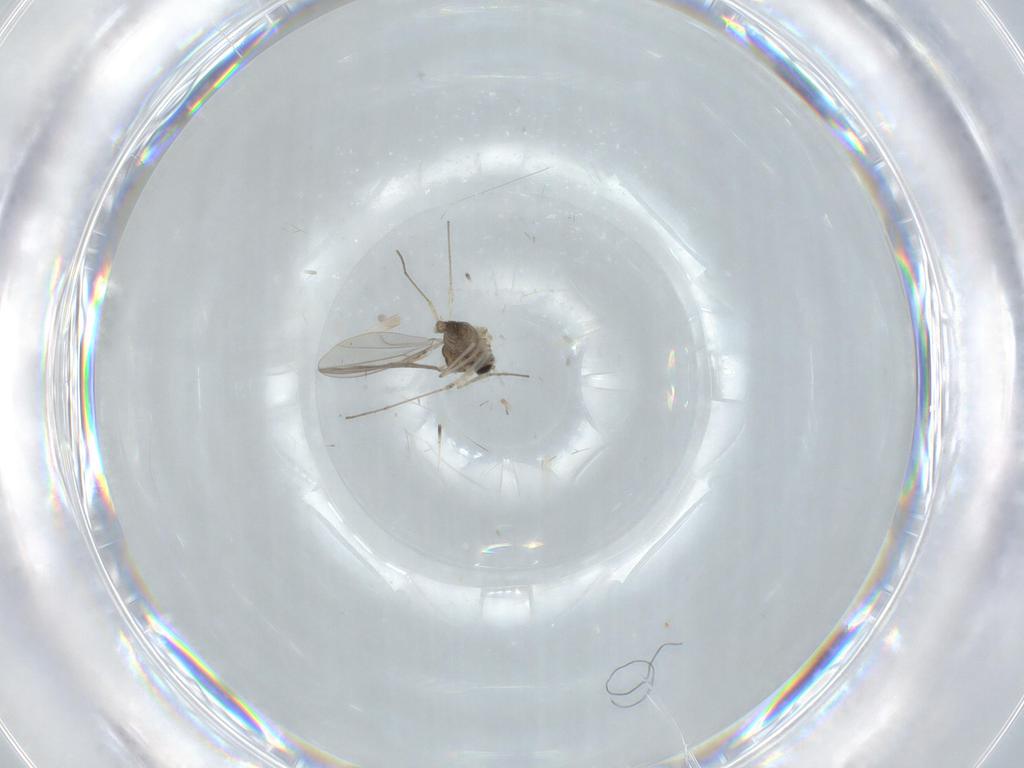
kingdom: Animalia
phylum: Arthropoda
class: Insecta
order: Diptera
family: Cecidomyiidae
